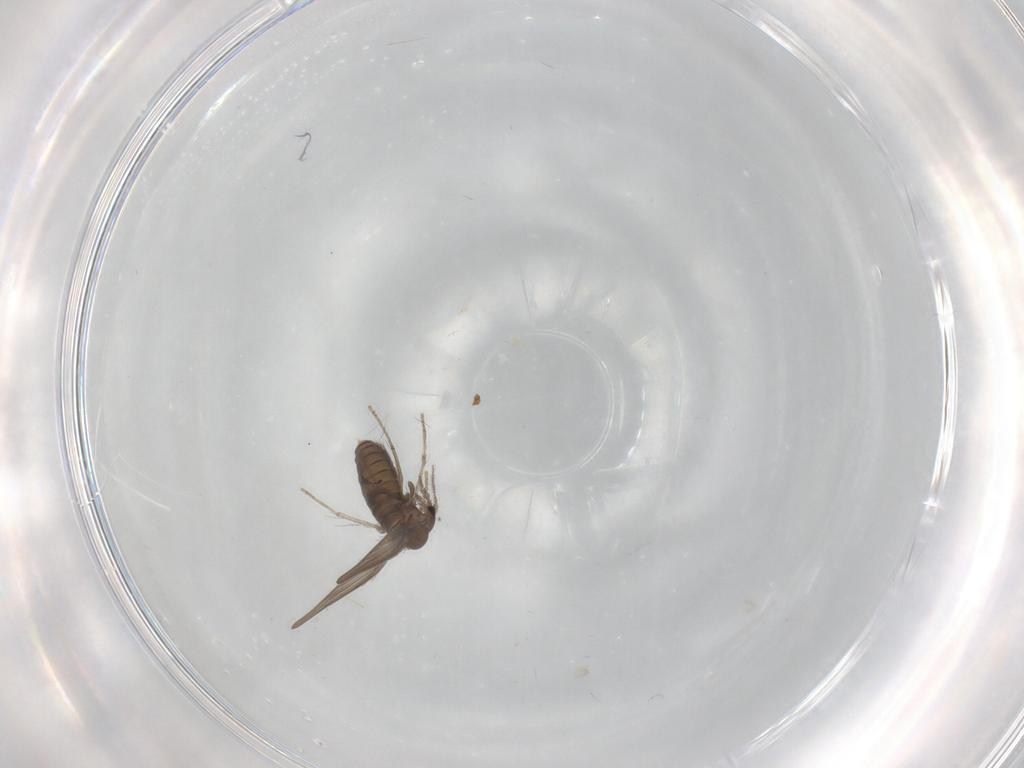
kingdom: Animalia
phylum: Arthropoda
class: Insecta
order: Diptera
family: Psychodidae
